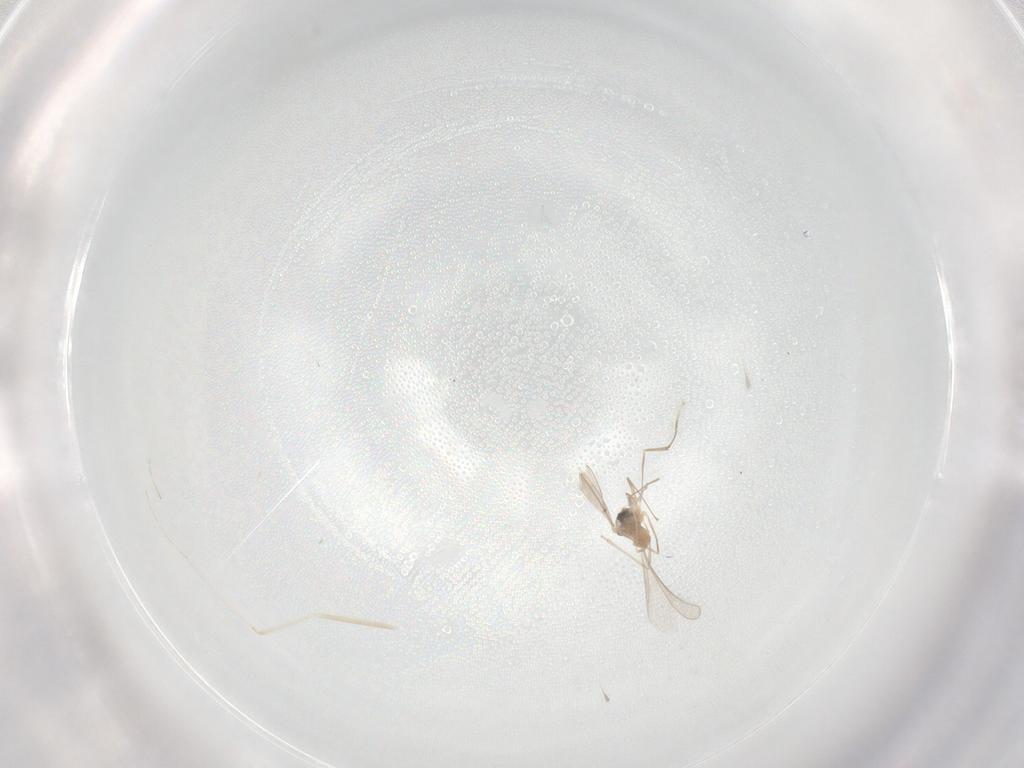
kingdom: Animalia
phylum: Arthropoda
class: Insecta
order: Diptera
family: Cecidomyiidae
